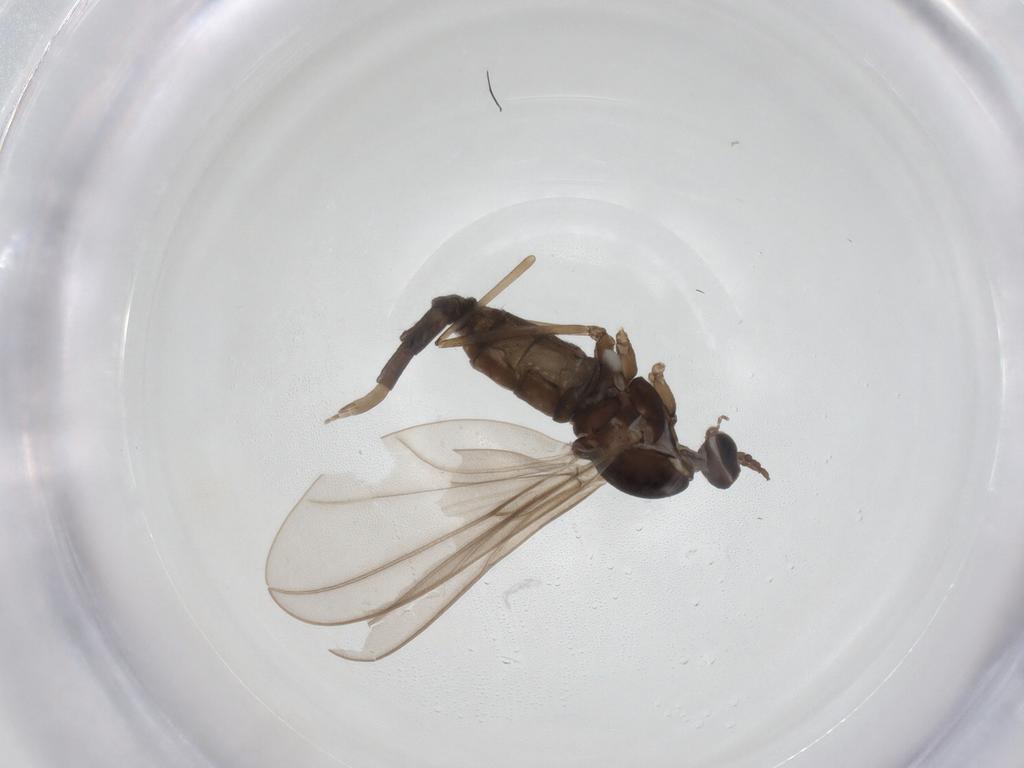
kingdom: Animalia
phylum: Arthropoda
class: Insecta
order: Diptera
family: Cecidomyiidae
